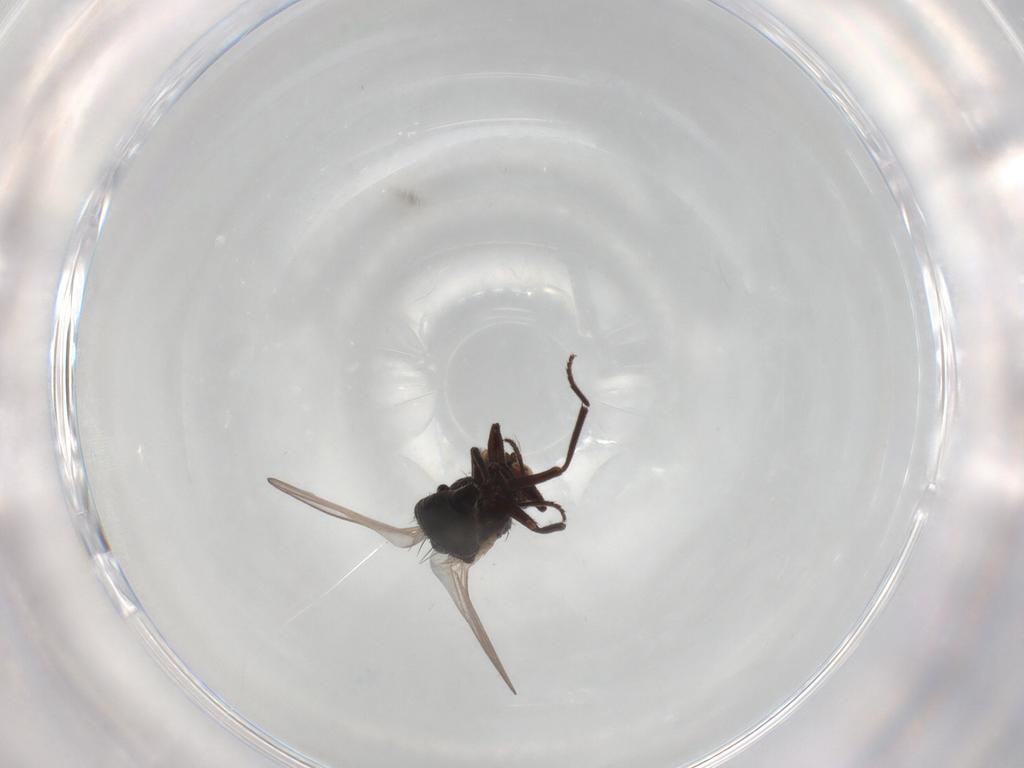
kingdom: Animalia
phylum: Arthropoda
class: Insecta
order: Diptera
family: Agromyzidae
